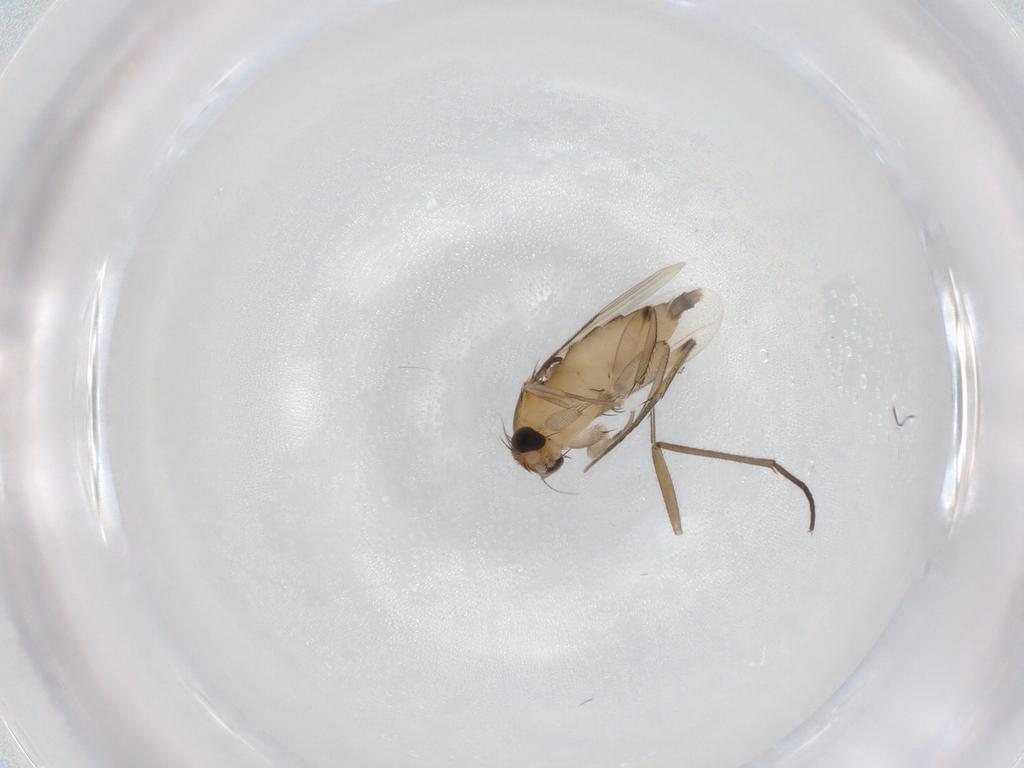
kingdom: Animalia
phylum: Arthropoda
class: Insecta
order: Diptera
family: Phoridae
